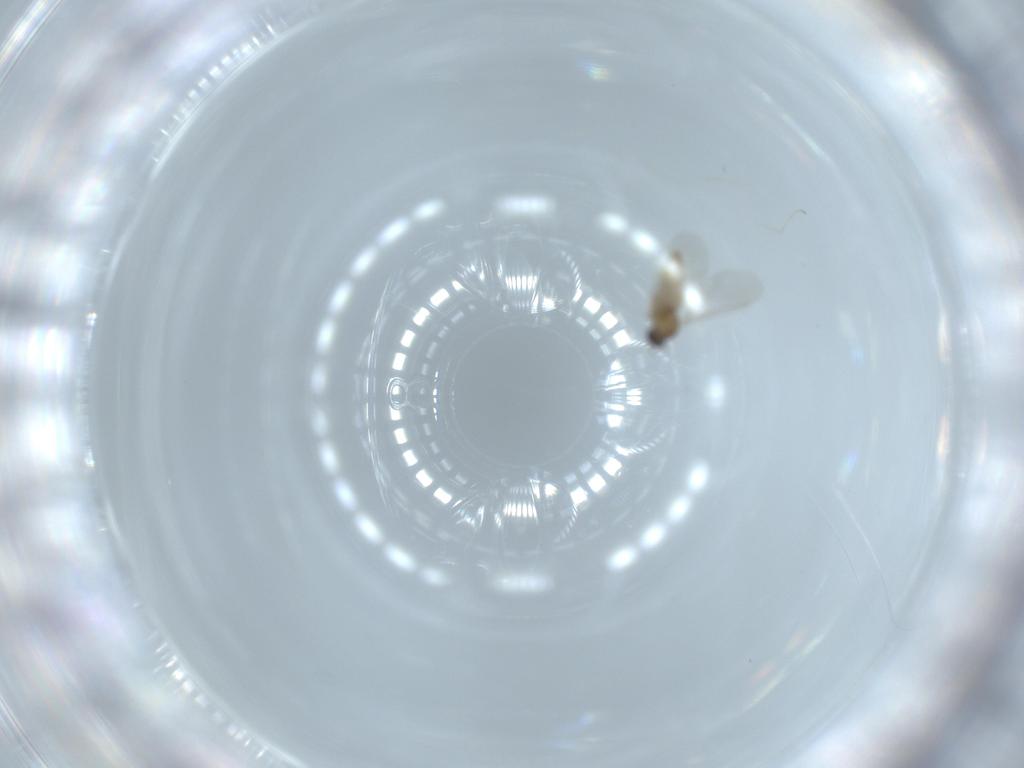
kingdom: Animalia
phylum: Arthropoda
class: Insecta
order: Diptera
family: Cecidomyiidae
